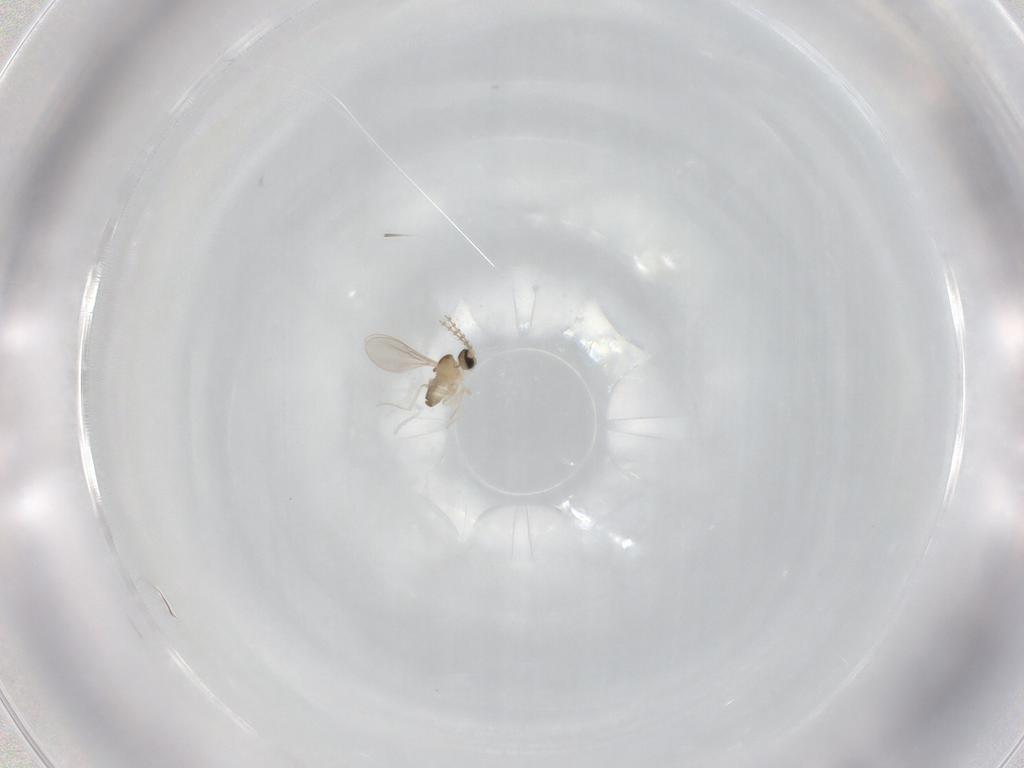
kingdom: Animalia
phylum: Arthropoda
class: Insecta
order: Diptera
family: Cecidomyiidae
